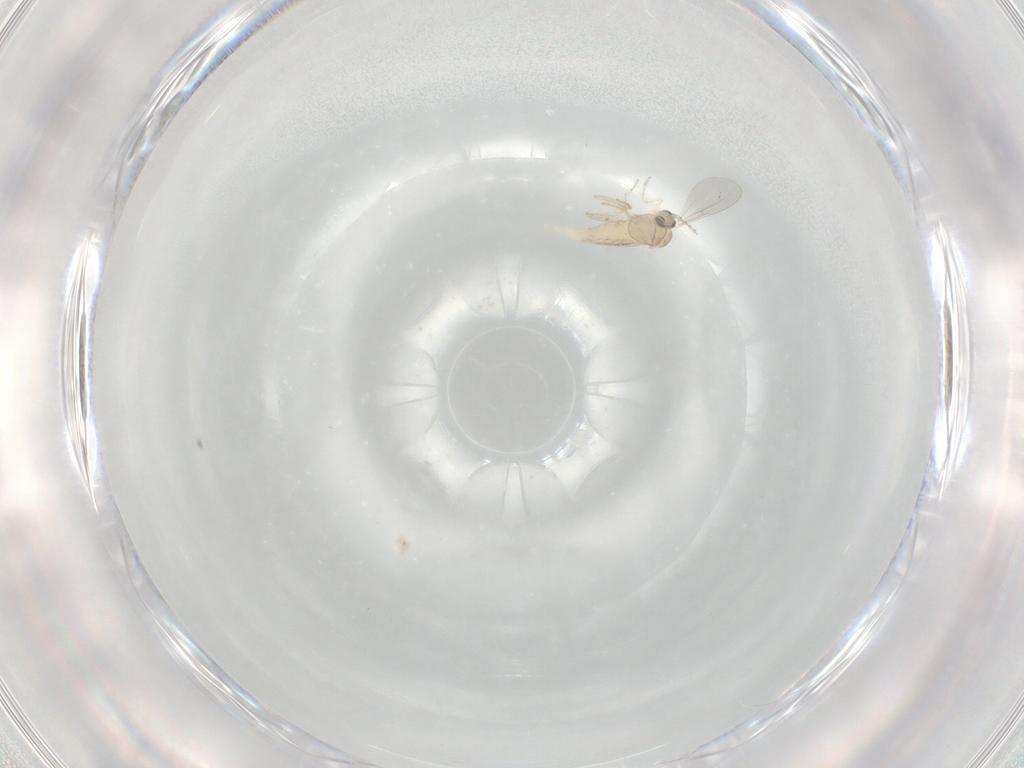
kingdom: Animalia
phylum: Arthropoda
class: Insecta
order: Diptera
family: Cecidomyiidae
